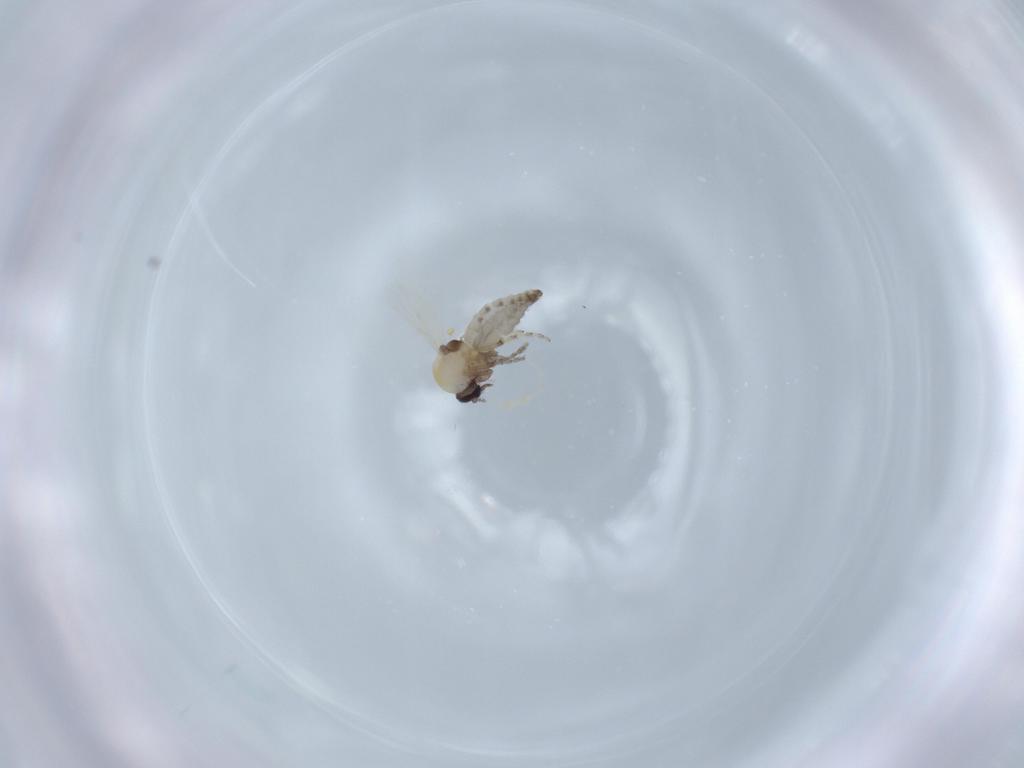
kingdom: Animalia
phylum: Arthropoda
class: Insecta
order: Diptera
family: Ceratopogonidae
